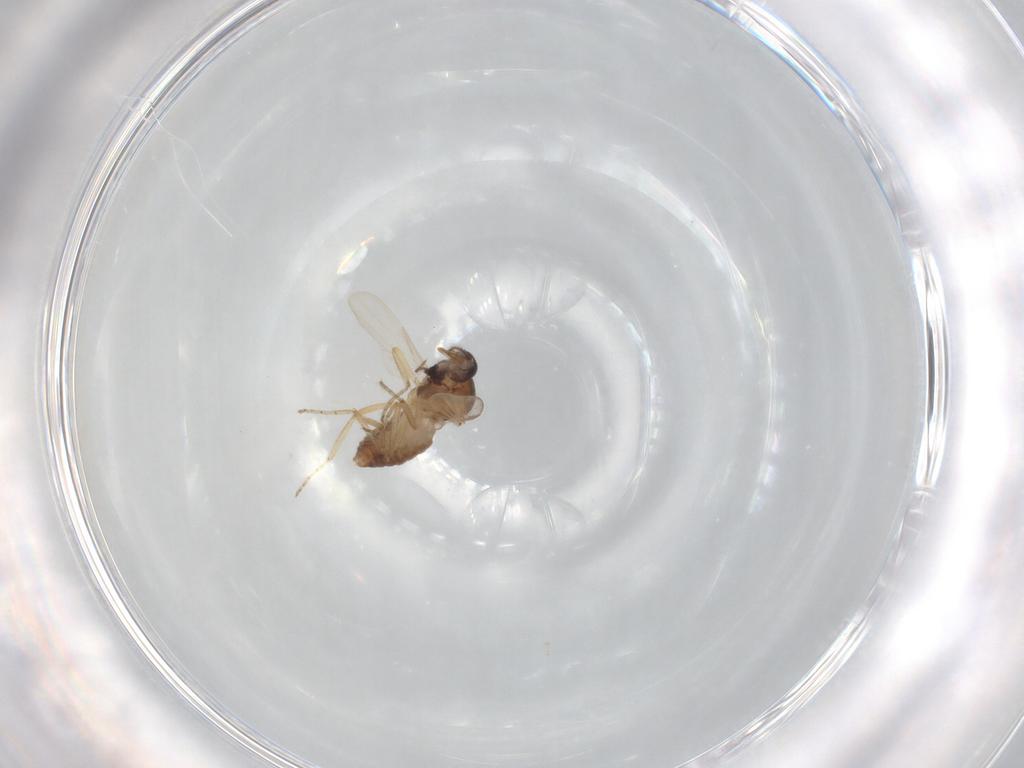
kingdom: Animalia
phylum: Arthropoda
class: Insecta
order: Diptera
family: Ceratopogonidae
